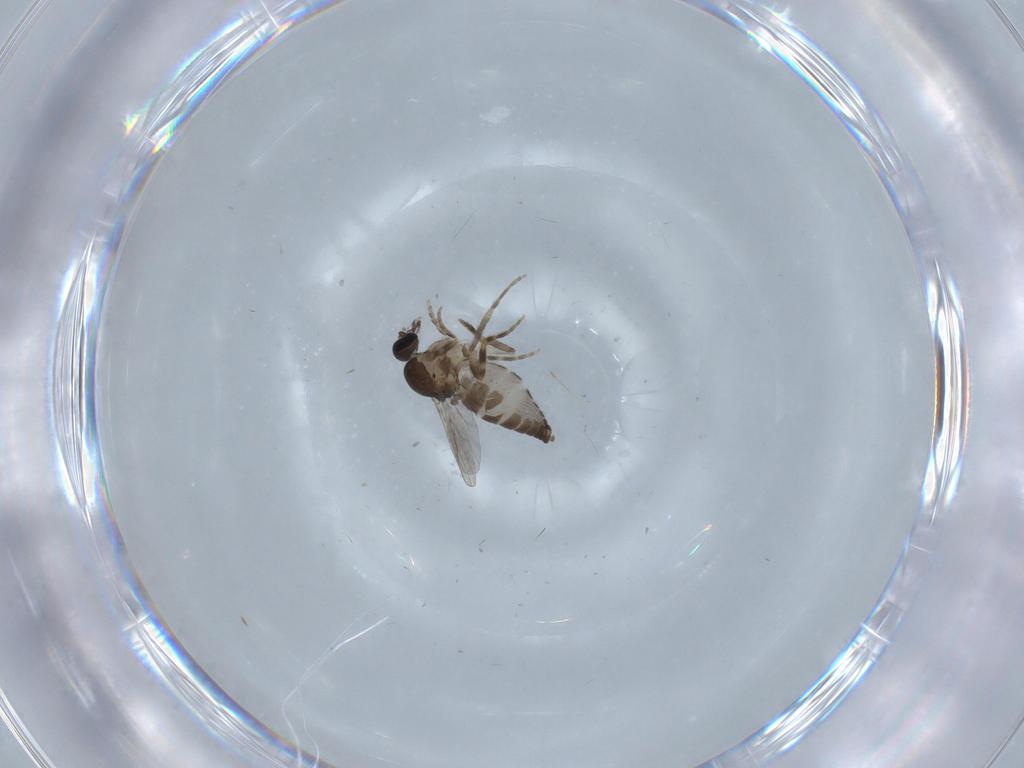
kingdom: Animalia
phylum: Arthropoda
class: Insecta
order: Diptera
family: Ceratopogonidae
